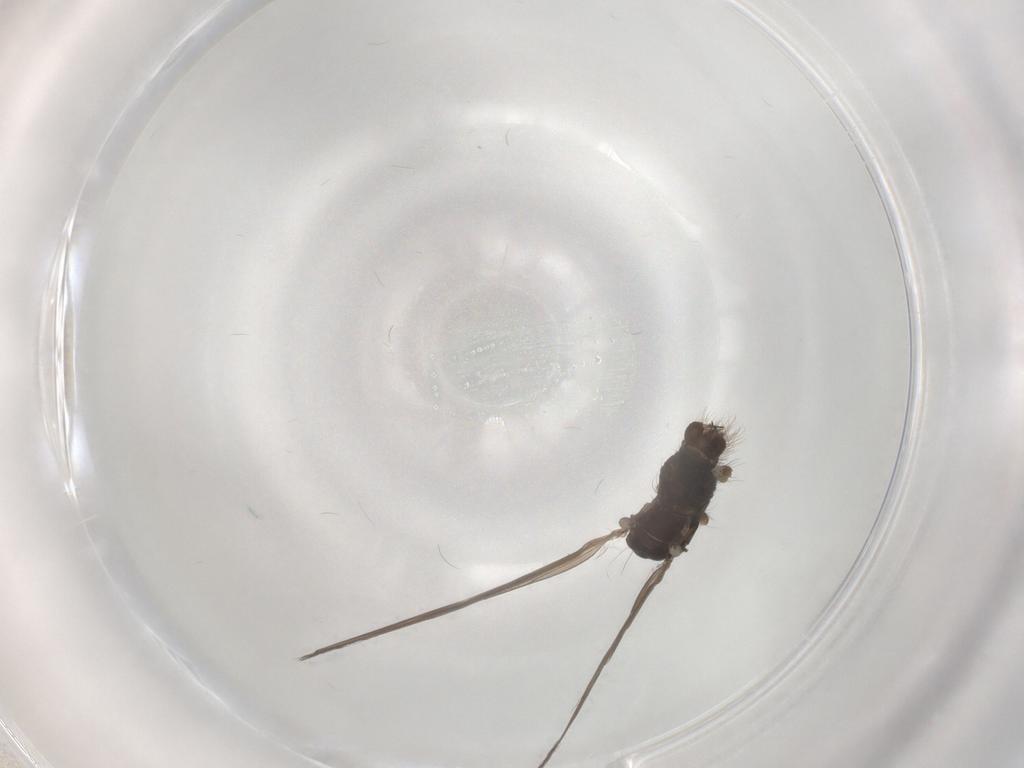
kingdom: Animalia
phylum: Arthropoda
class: Insecta
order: Diptera
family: Limoniidae
